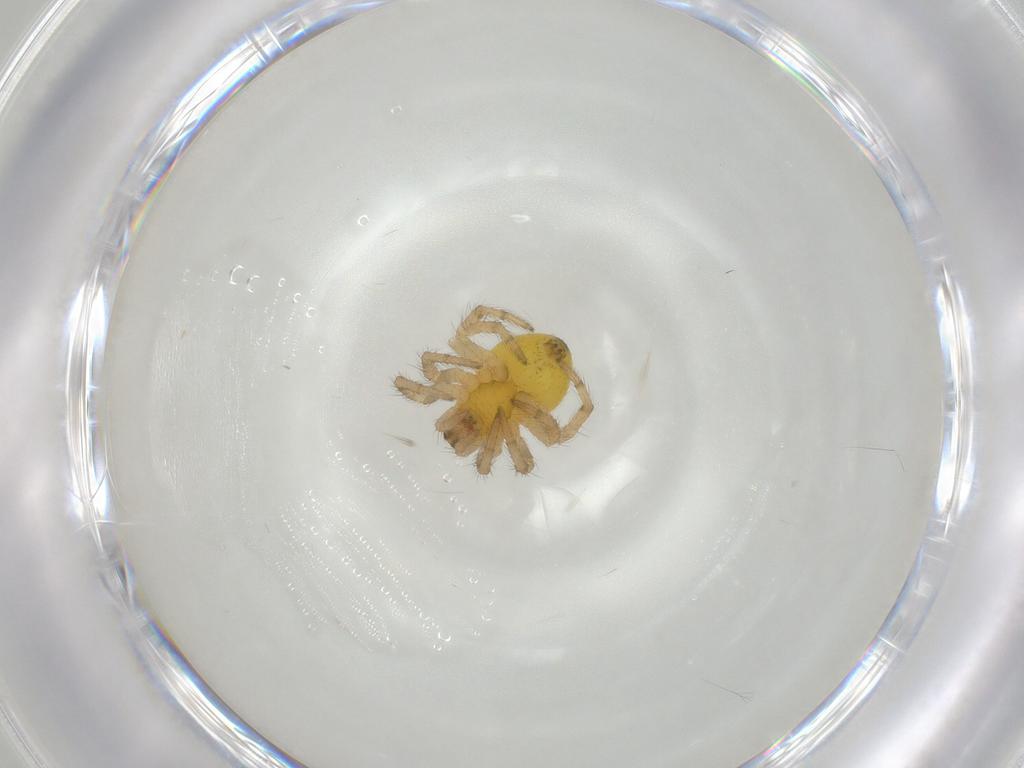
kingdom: Animalia
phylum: Arthropoda
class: Arachnida
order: Araneae
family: Araneidae
